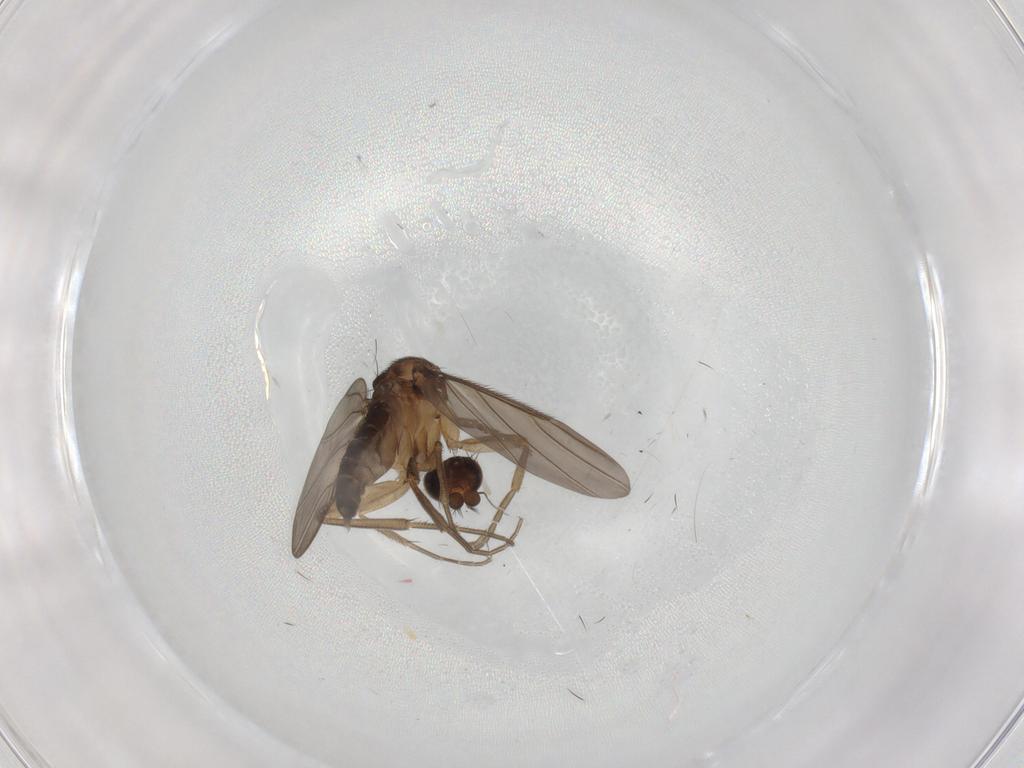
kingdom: Animalia
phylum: Arthropoda
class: Insecta
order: Diptera
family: Phoridae
